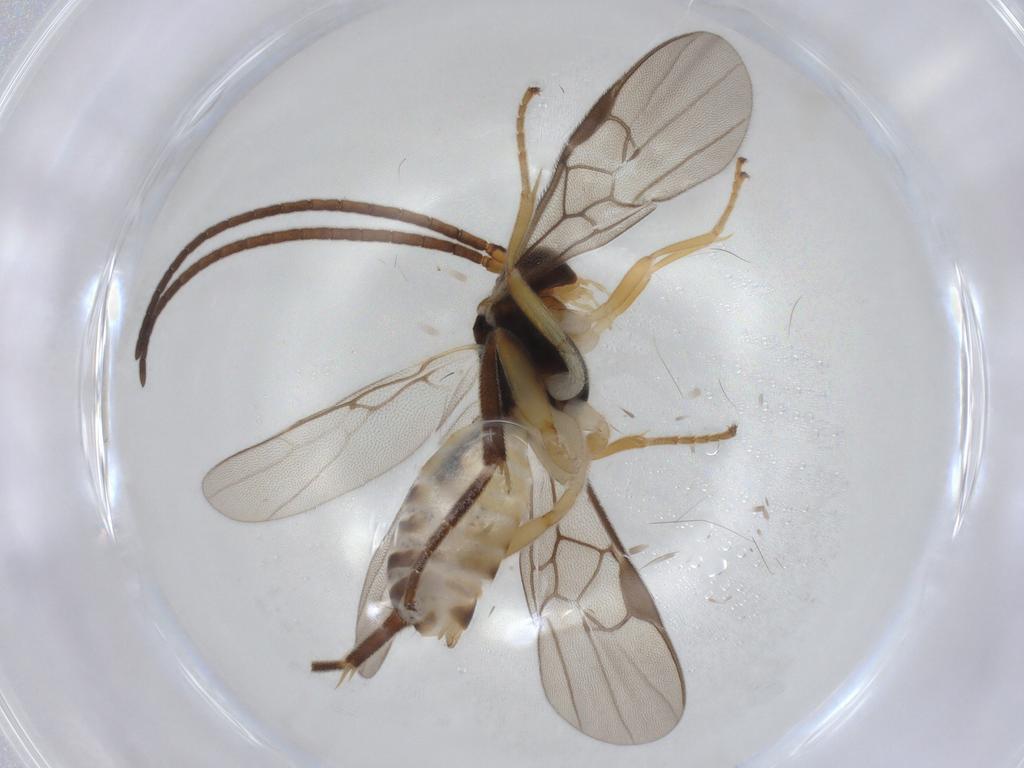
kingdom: Animalia
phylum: Arthropoda
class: Insecta
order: Hymenoptera
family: Braconidae
